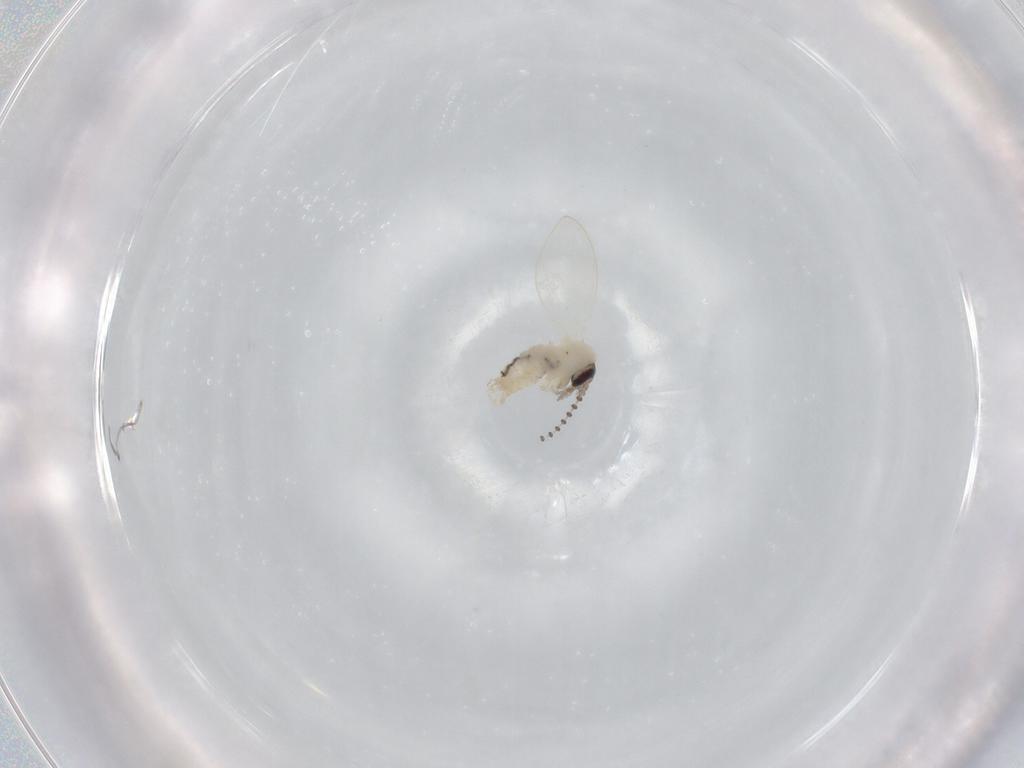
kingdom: Animalia
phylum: Arthropoda
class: Insecta
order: Diptera
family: Psychodidae
